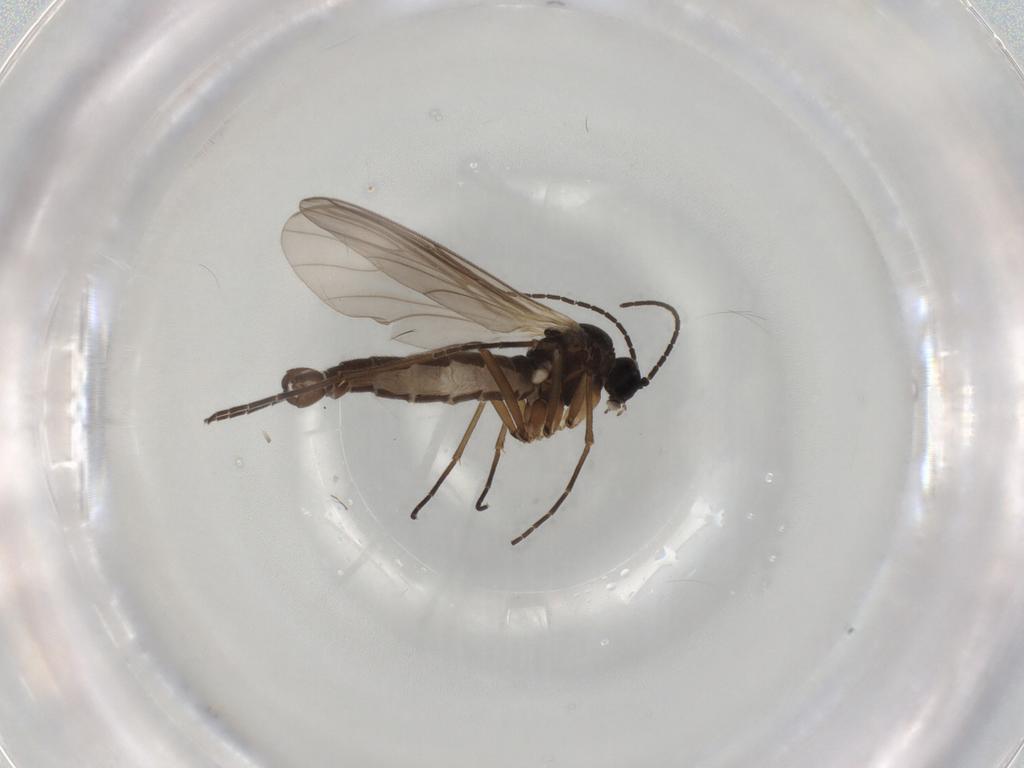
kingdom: Animalia
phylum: Arthropoda
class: Insecta
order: Diptera
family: Sciaridae
